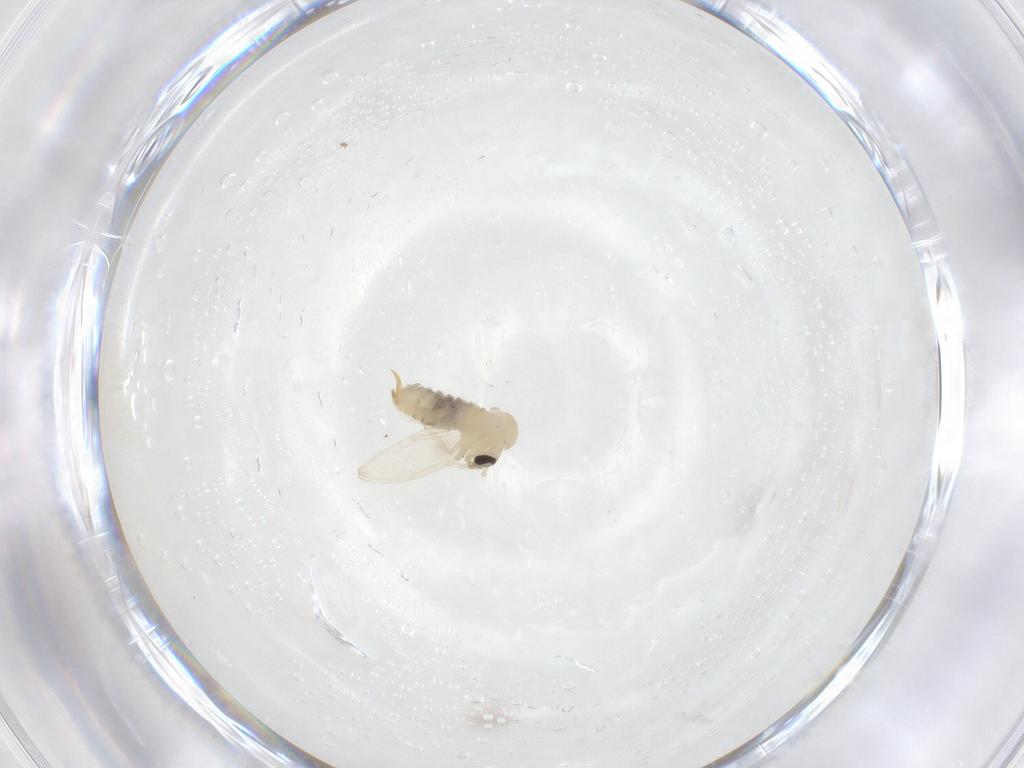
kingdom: Animalia
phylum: Arthropoda
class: Insecta
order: Diptera
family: Psychodidae
